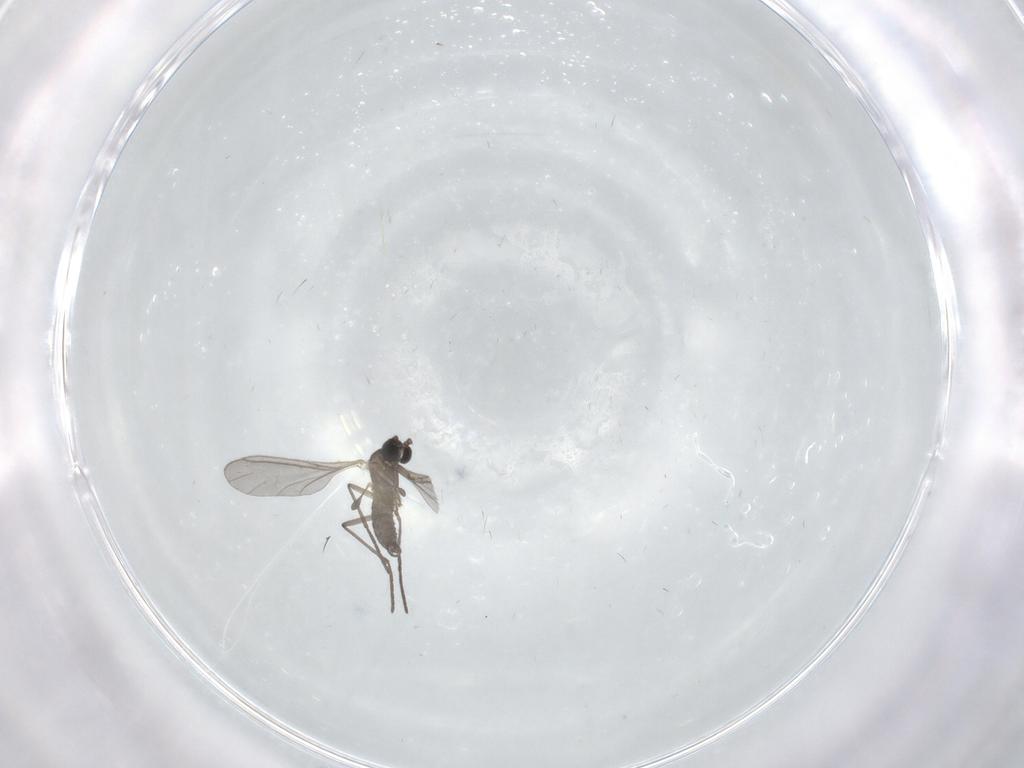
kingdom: Animalia
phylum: Arthropoda
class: Insecta
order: Diptera
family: Sciaridae
